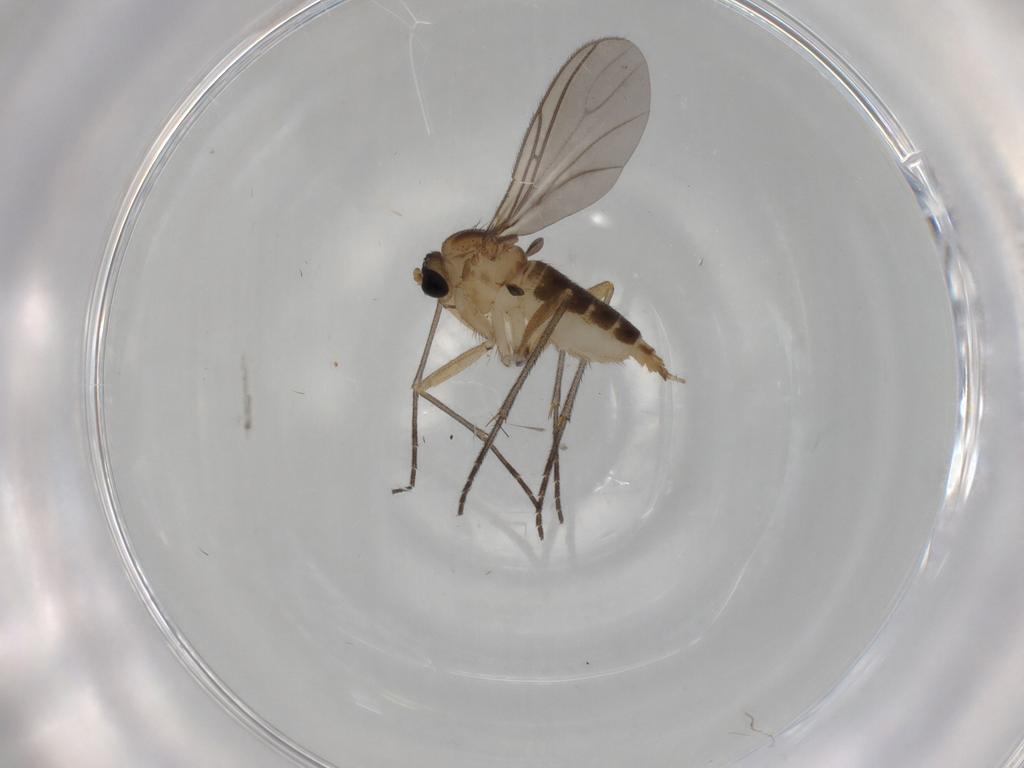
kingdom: Animalia
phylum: Arthropoda
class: Insecta
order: Diptera
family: Sciaridae
